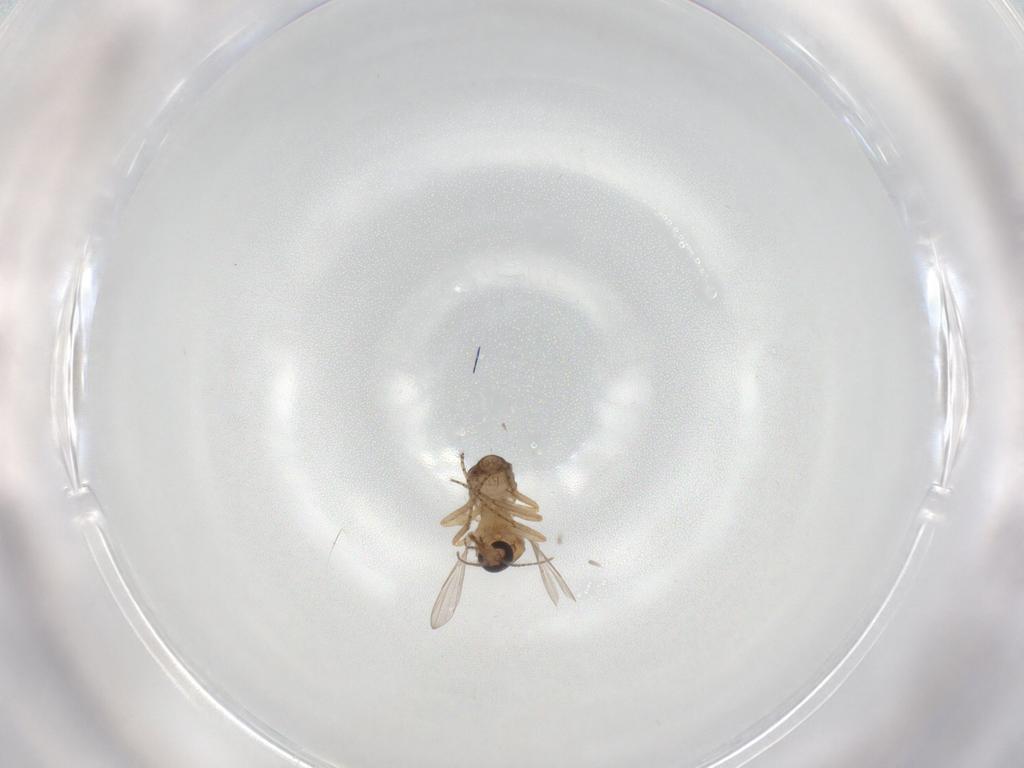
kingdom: Animalia
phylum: Arthropoda
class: Insecta
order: Diptera
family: Ceratopogonidae
